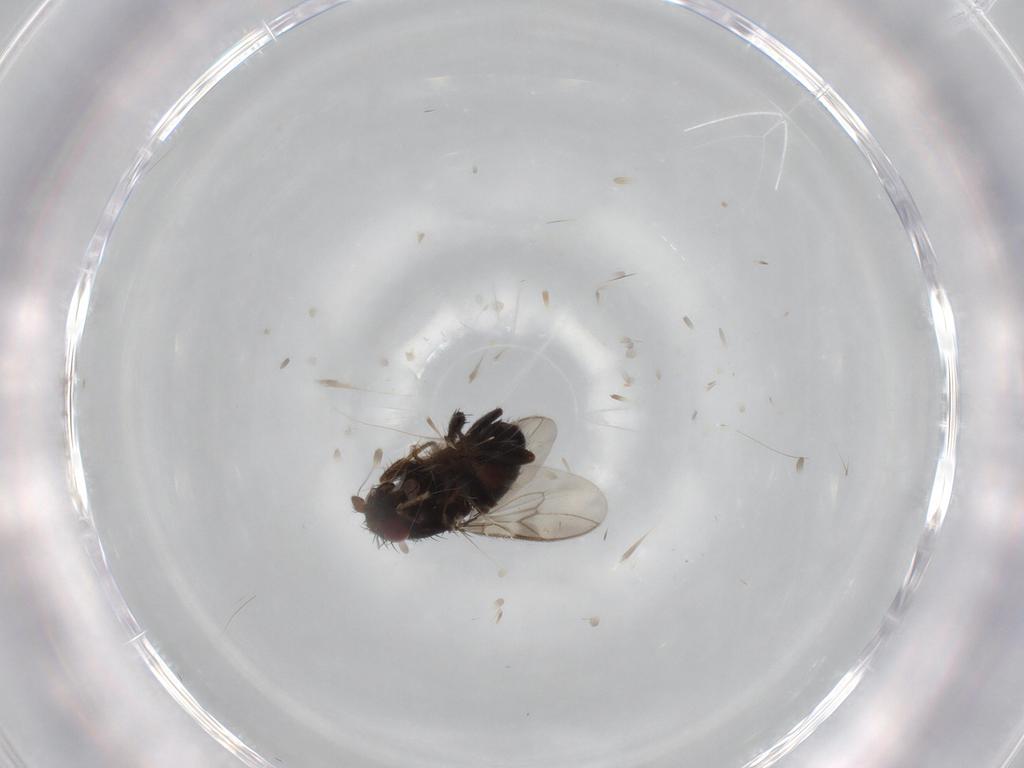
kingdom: Animalia
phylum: Arthropoda
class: Insecta
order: Diptera
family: Sphaeroceridae
